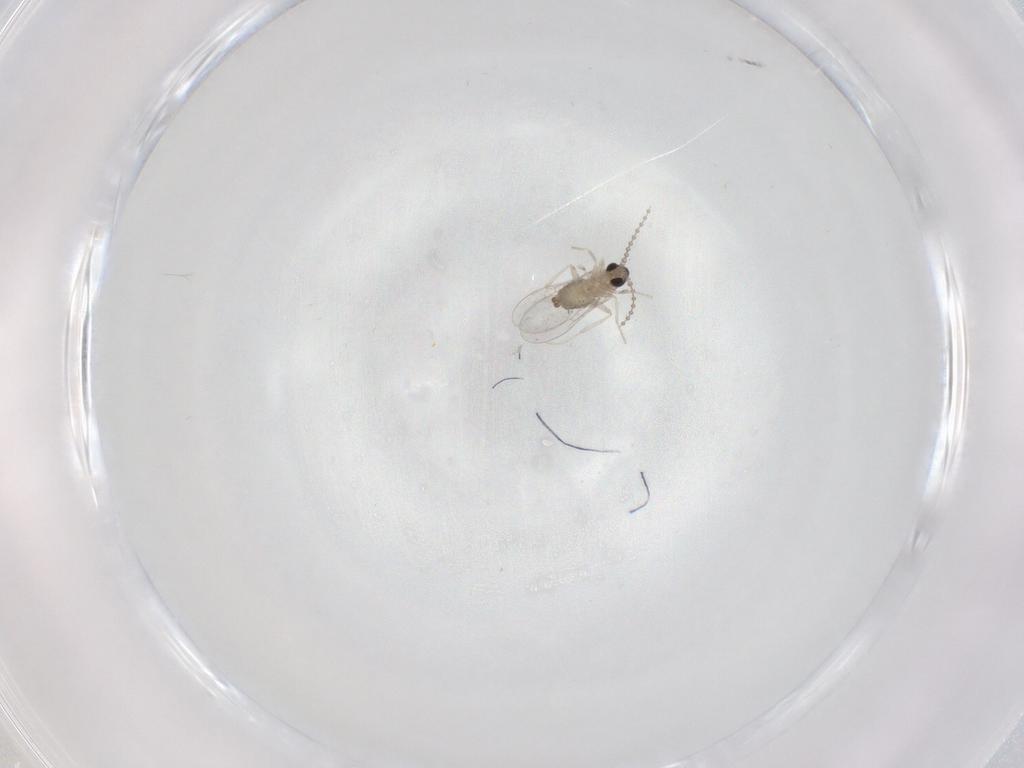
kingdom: Animalia
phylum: Arthropoda
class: Insecta
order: Diptera
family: Cecidomyiidae
